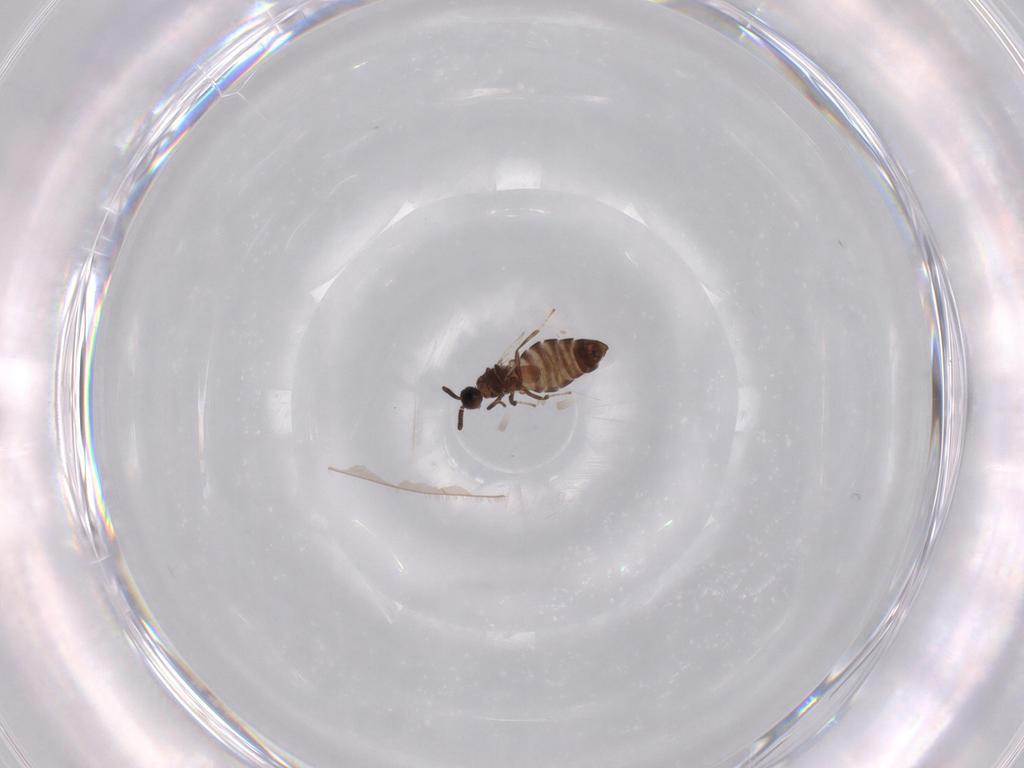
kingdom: Animalia
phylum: Arthropoda
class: Insecta
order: Diptera
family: Scatopsidae
